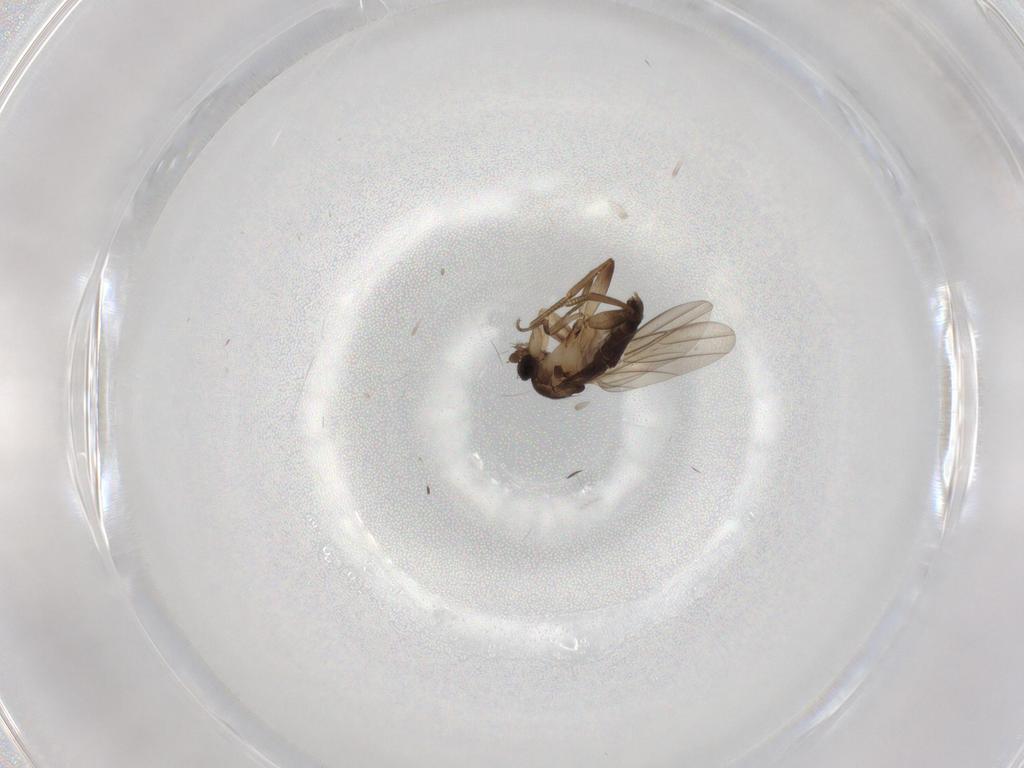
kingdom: Animalia
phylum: Arthropoda
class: Insecta
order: Diptera
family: Phoridae
